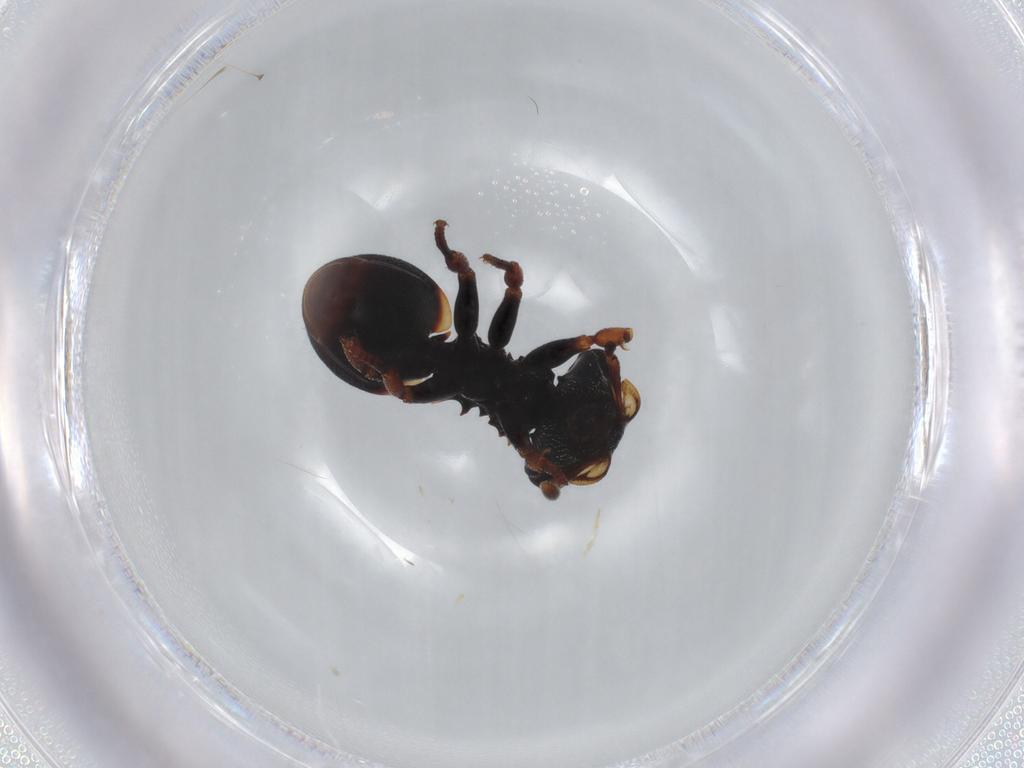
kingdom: Animalia
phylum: Arthropoda
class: Insecta
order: Hymenoptera
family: Formicidae
